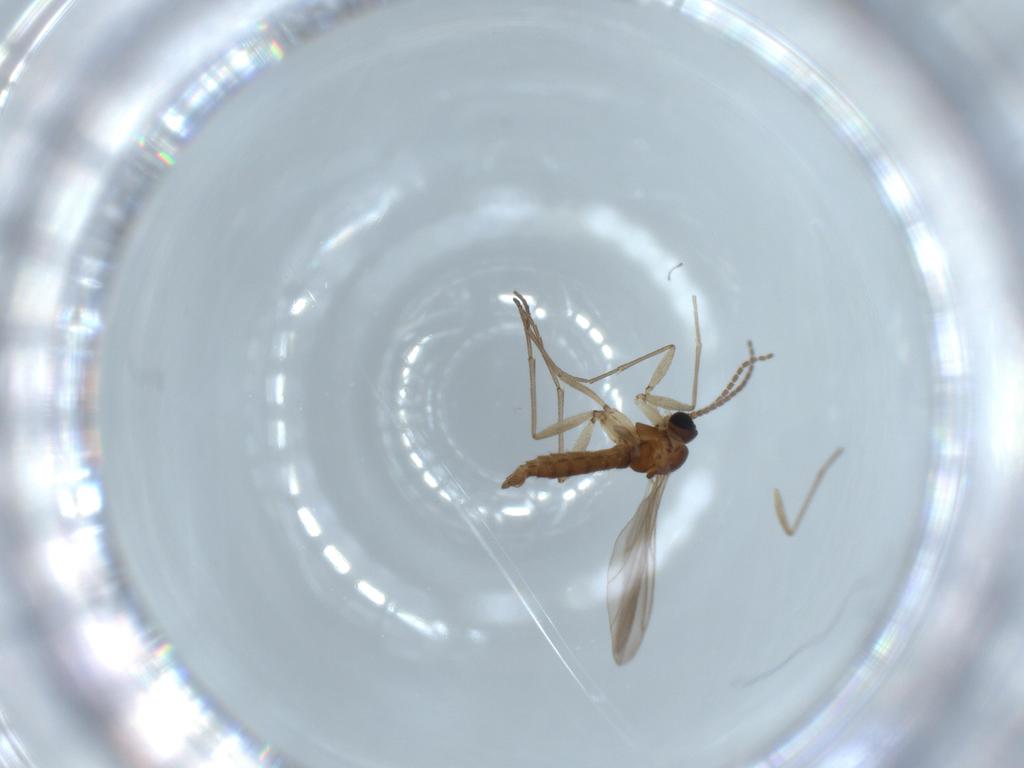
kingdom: Animalia
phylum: Arthropoda
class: Insecta
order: Diptera
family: Sciaridae
